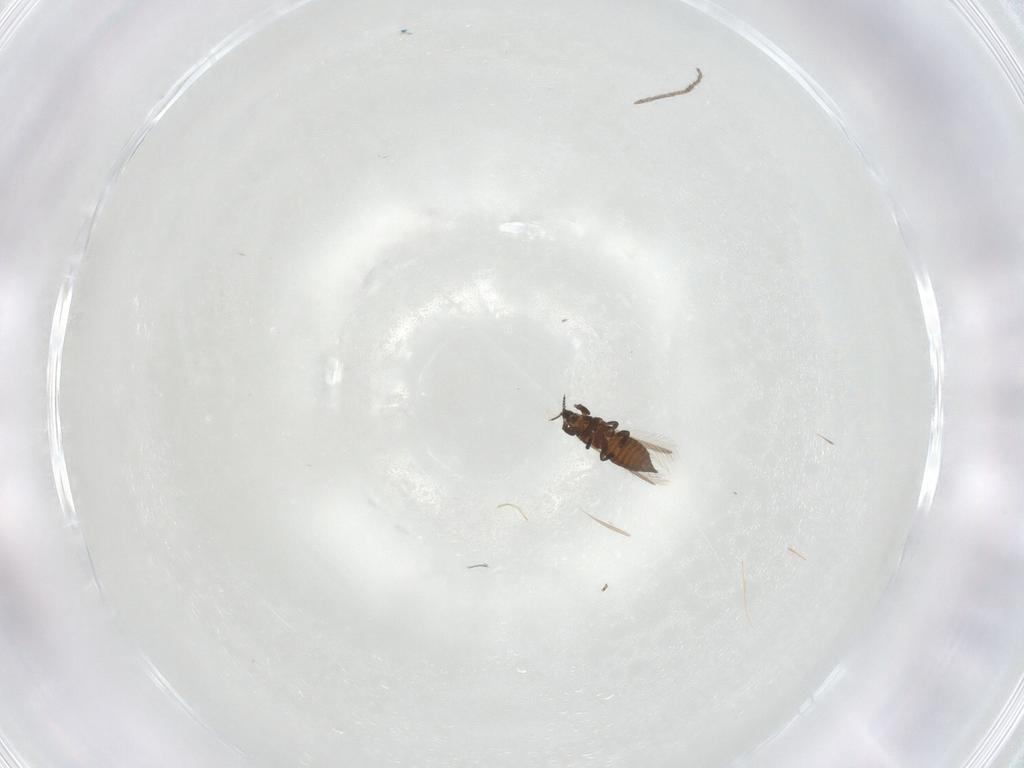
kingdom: Animalia
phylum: Arthropoda
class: Insecta
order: Thysanoptera
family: Thripidae
